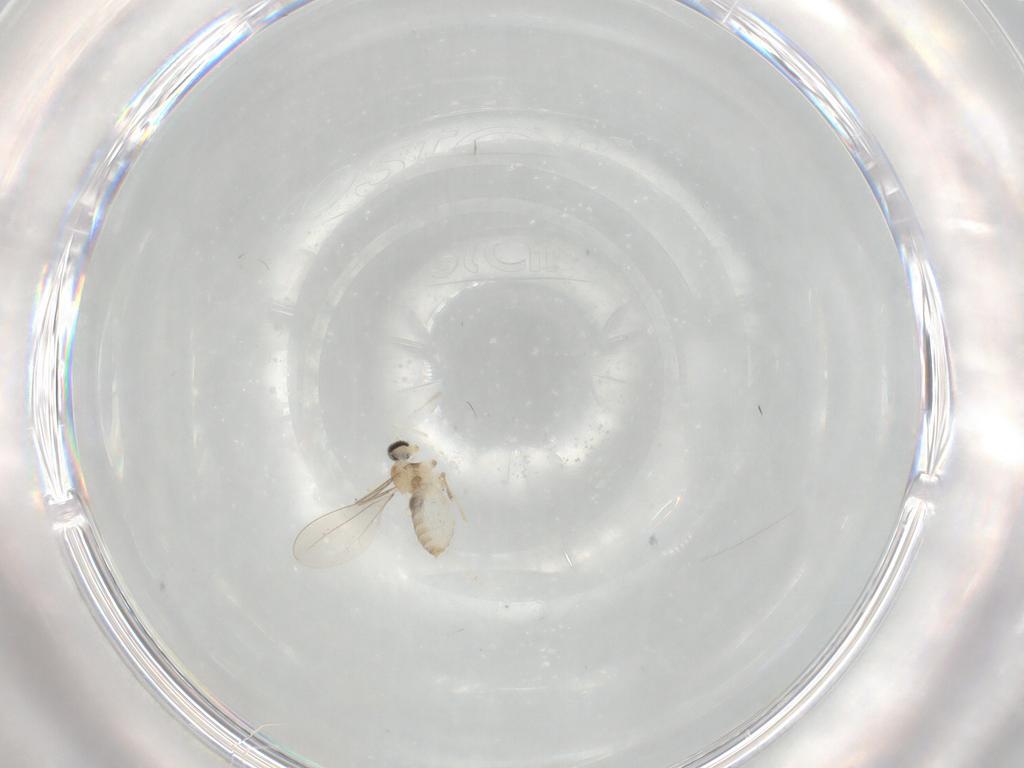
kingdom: Animalia
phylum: Arthropoda
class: Insecta
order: Diptera
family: Cecidomyiidae
